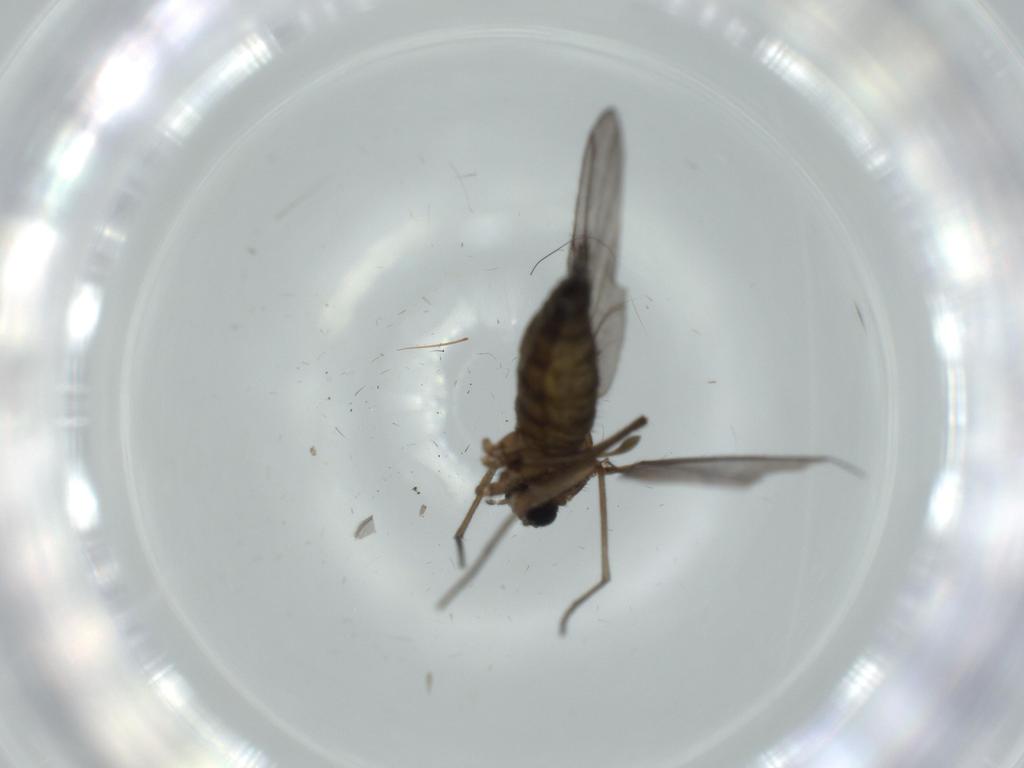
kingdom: Animalia
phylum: Arthropoda
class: Insecta
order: Diptera
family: Sciaridae
